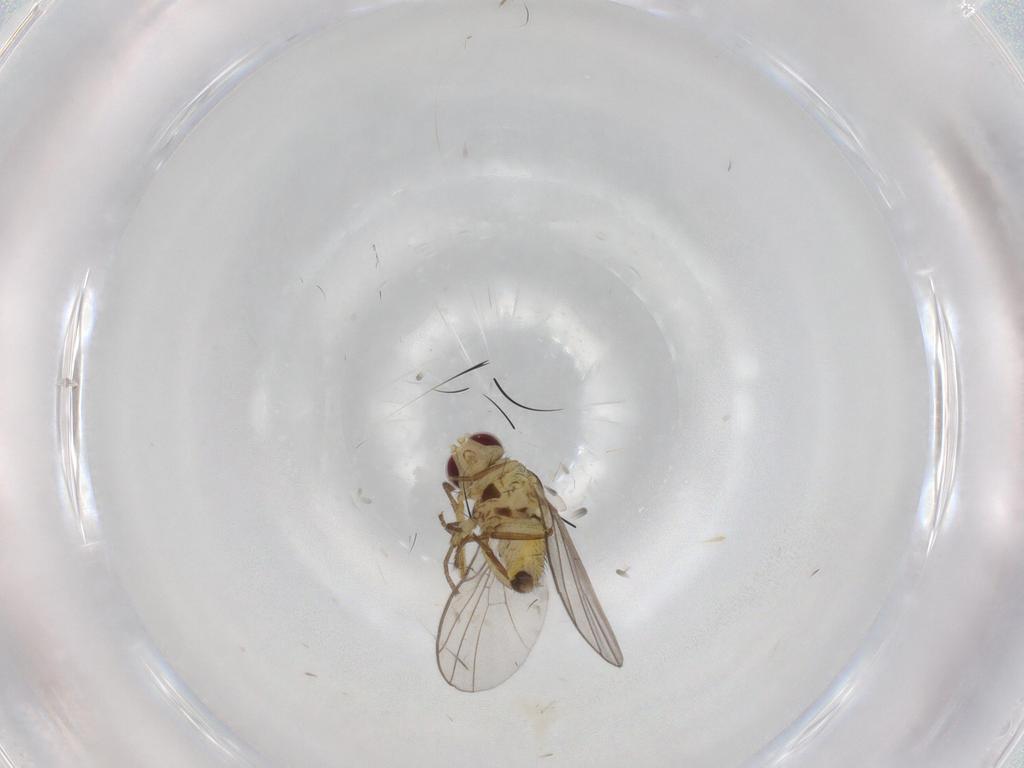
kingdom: Animalia
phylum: Arthropoda
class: Insecta
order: Diptera
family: Agromyzidae
